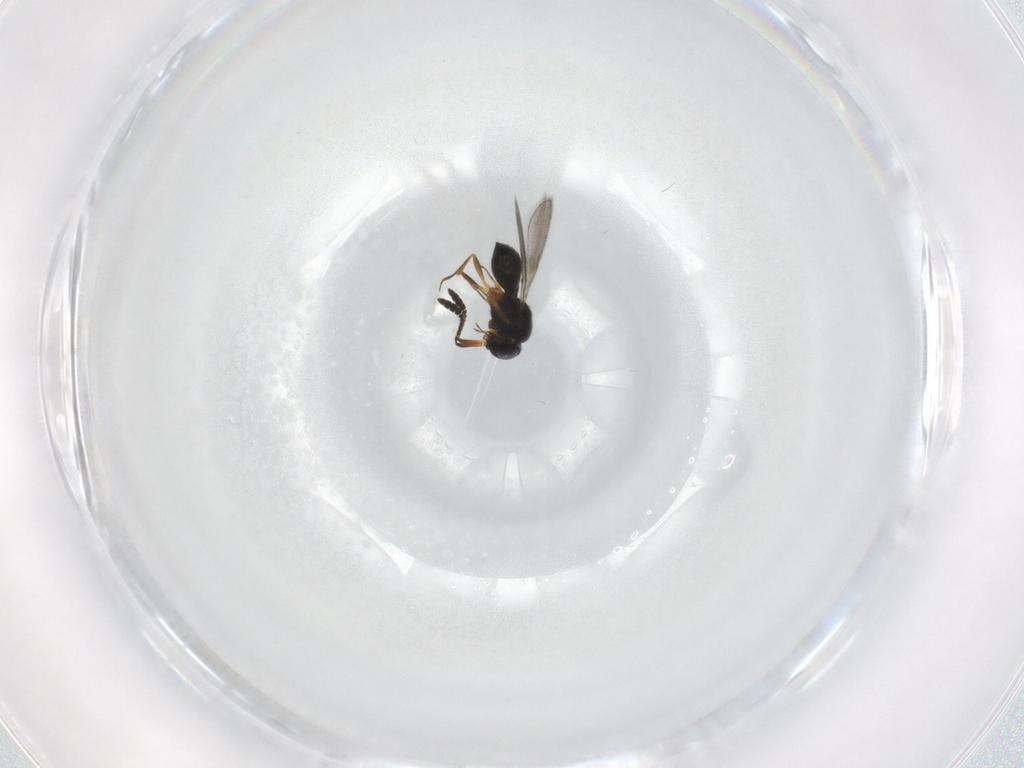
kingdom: Animalia
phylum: Arthropoda
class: Insecta
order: Hymenoptera
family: Scelionidae
